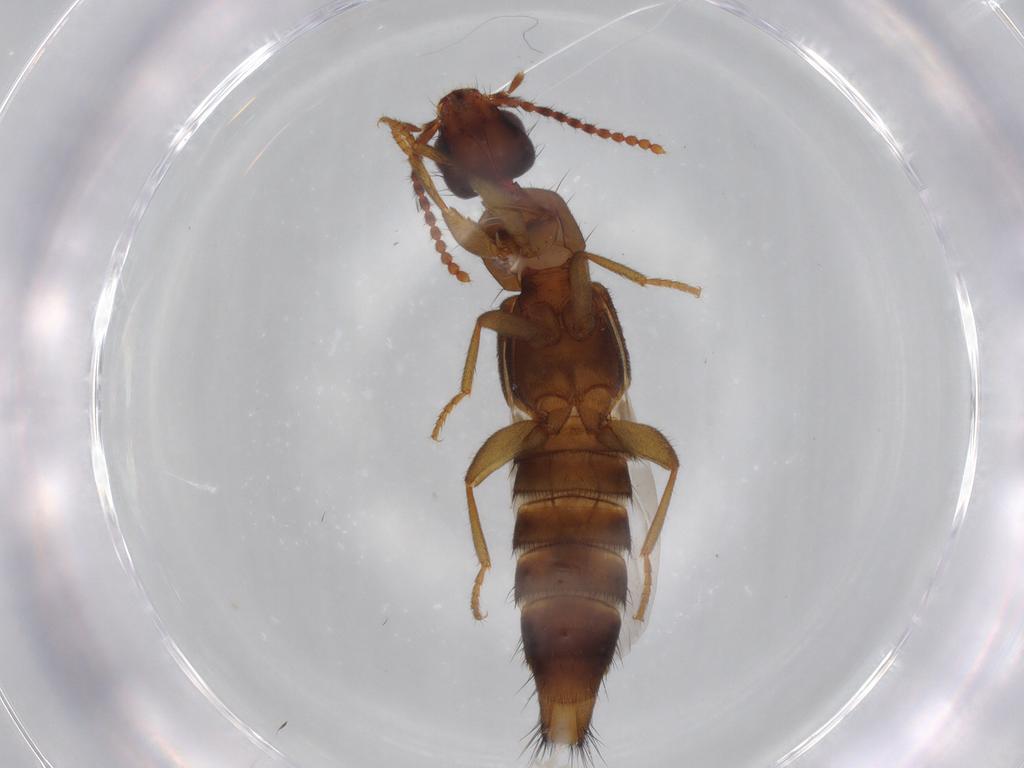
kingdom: Animalia
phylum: Arthropoda
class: Insecta
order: Coleoptera
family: Staphylinidae
